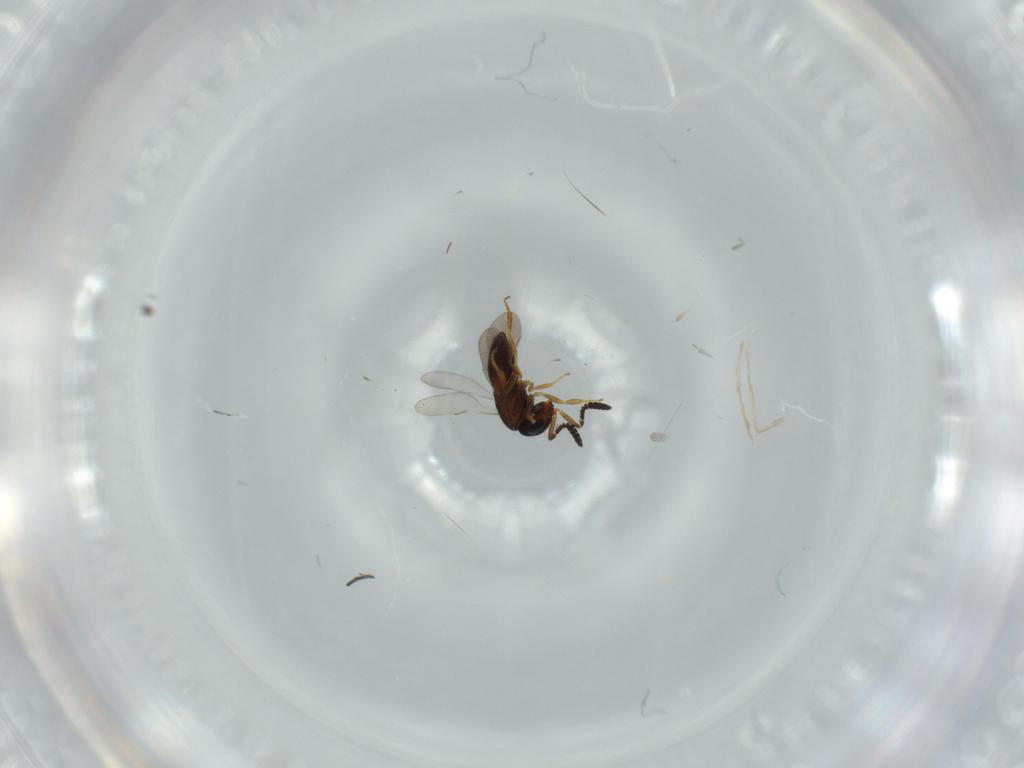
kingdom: Animalia
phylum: Arthropoda
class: Insecta
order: Hymenoptera
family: Scelionidae
